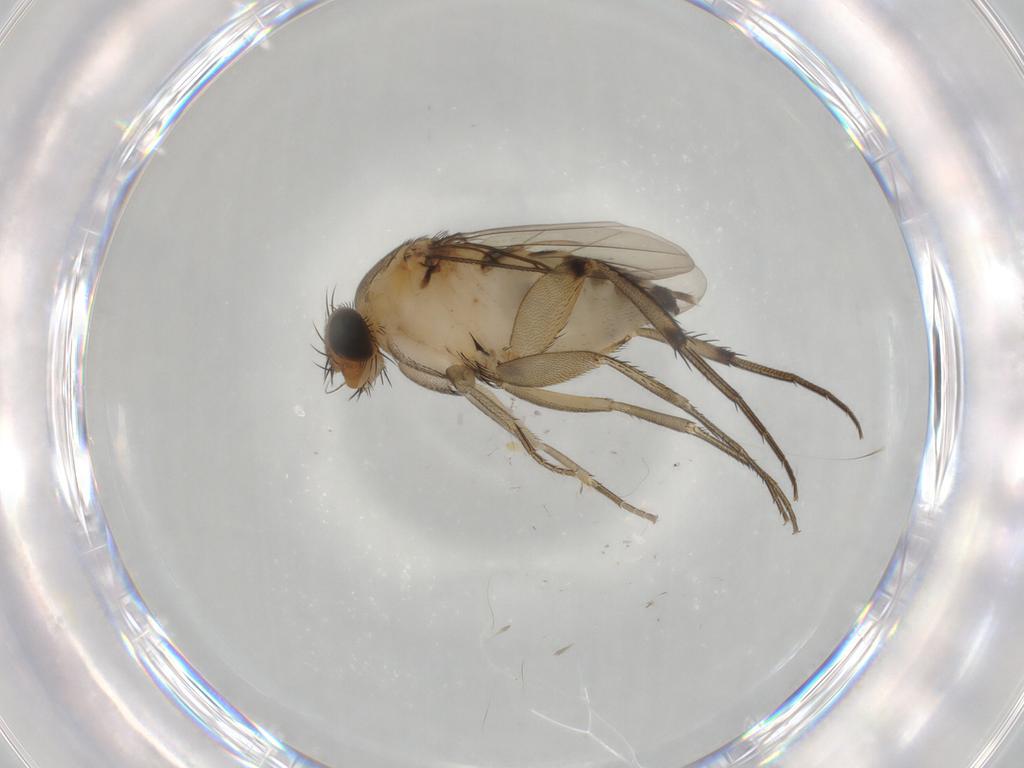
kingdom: Animalia
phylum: Arthropoda
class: Insecta
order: Diptera
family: Phoridae
